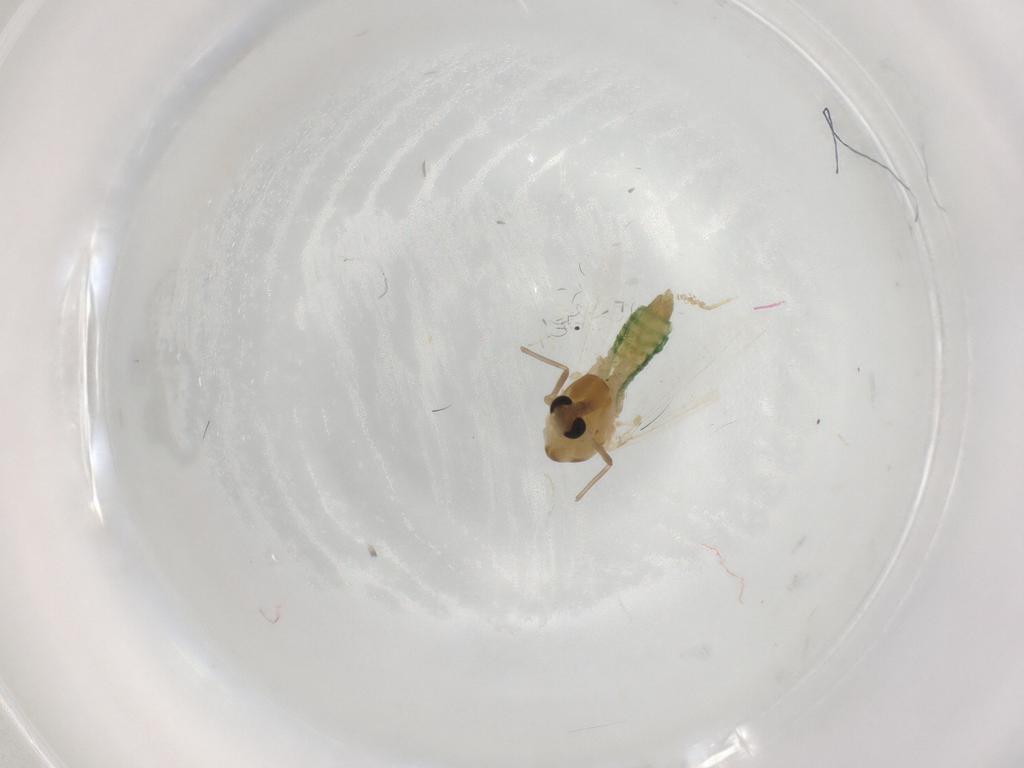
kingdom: Animalia
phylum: Arthropoda
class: Insecta
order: Diptera
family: Chironomidae
